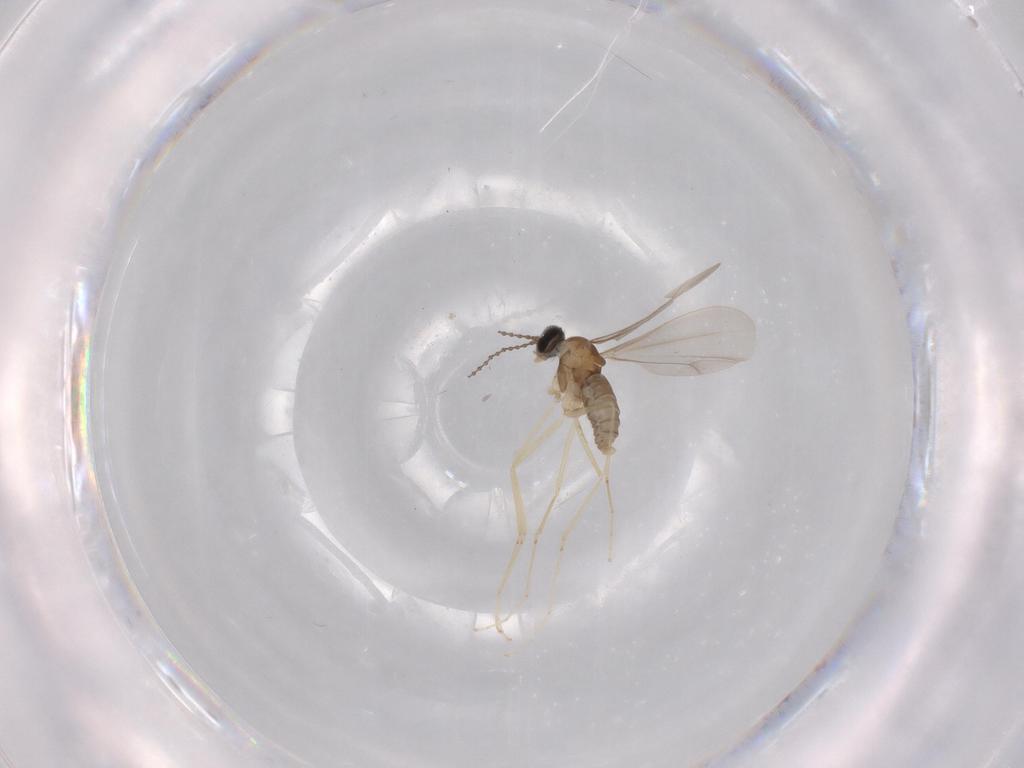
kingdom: Animalia
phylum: Arthropoda
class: Insecta
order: Diptera
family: Cecidomyiidae
